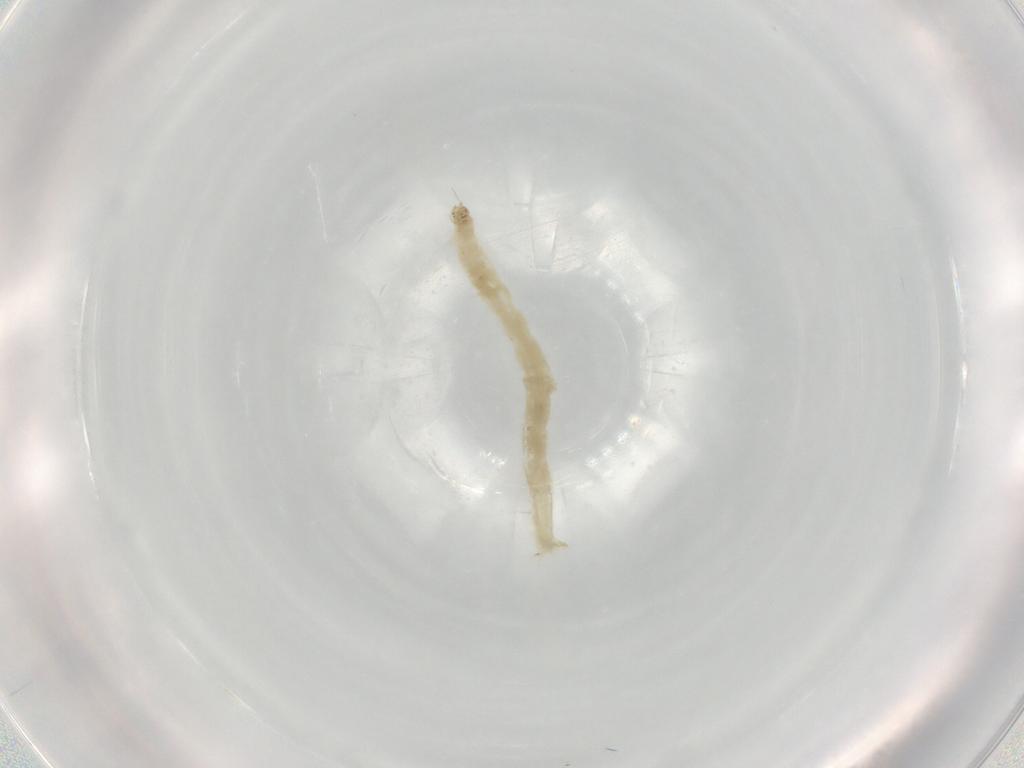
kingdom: Animalia
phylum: Arthropoda
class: Insecta
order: Diptera
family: Chironomidae
